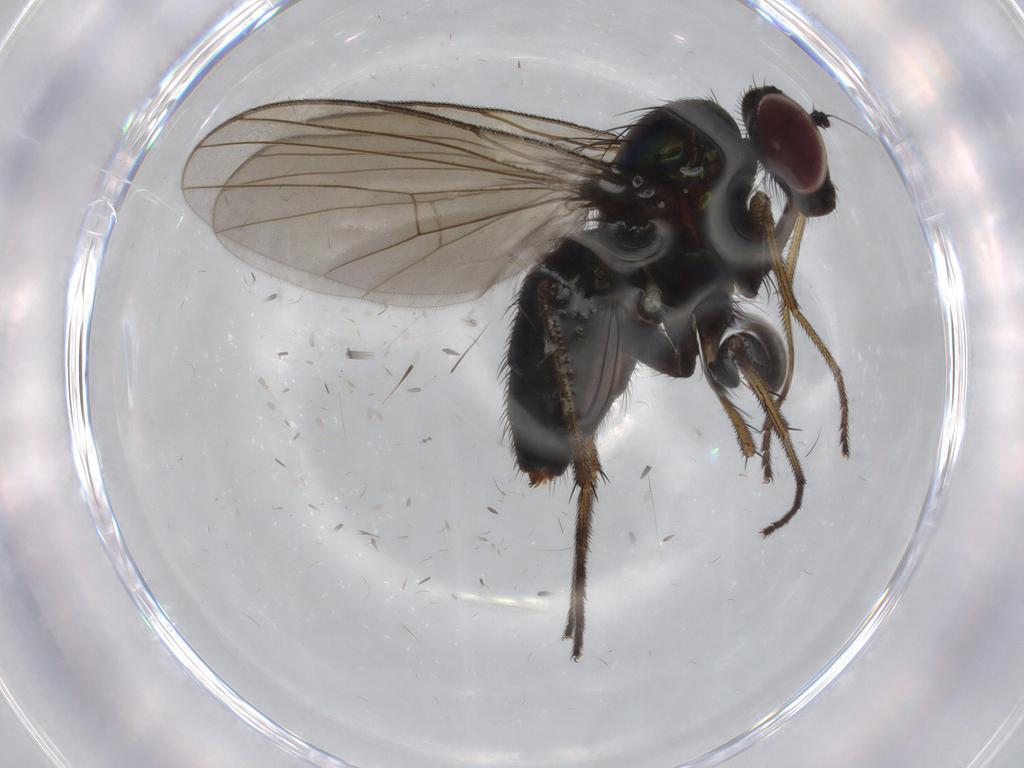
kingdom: Animalia
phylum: Arthropoda
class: Insecta
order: Diptera
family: Dolichopodidae
